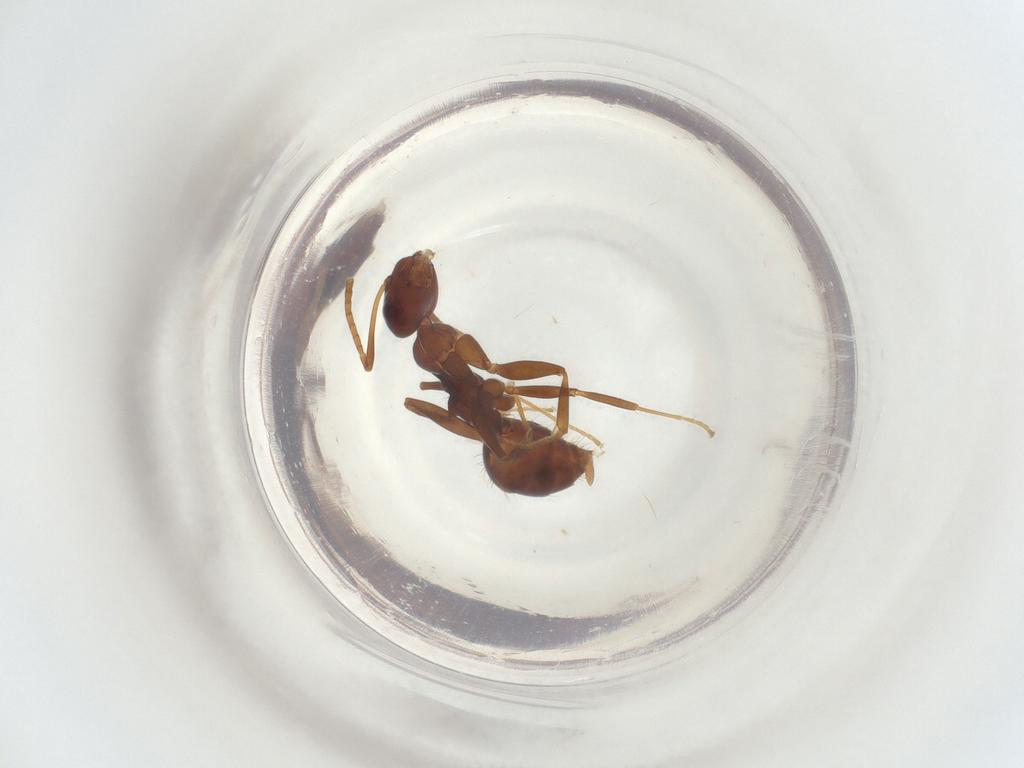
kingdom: Animalia
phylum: Arthropoda
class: Insecta
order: Hymenoptera
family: Formicidae
